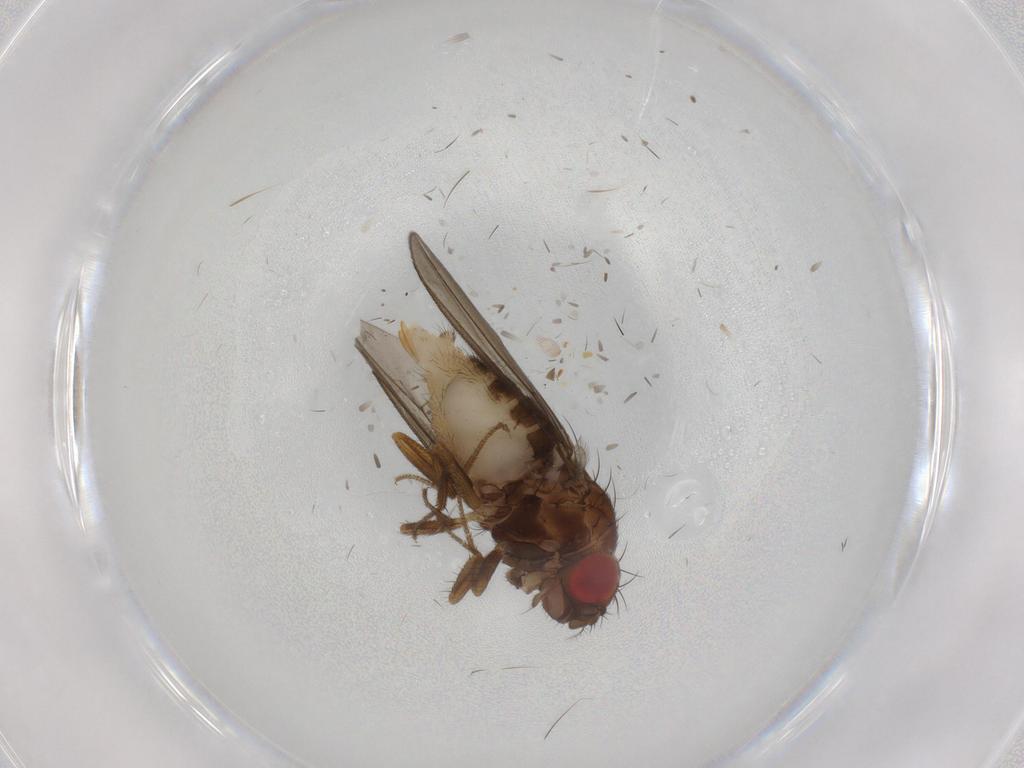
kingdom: Animalia
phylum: Arthropoda
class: Insecta
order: Diptera
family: Drosophilidae
